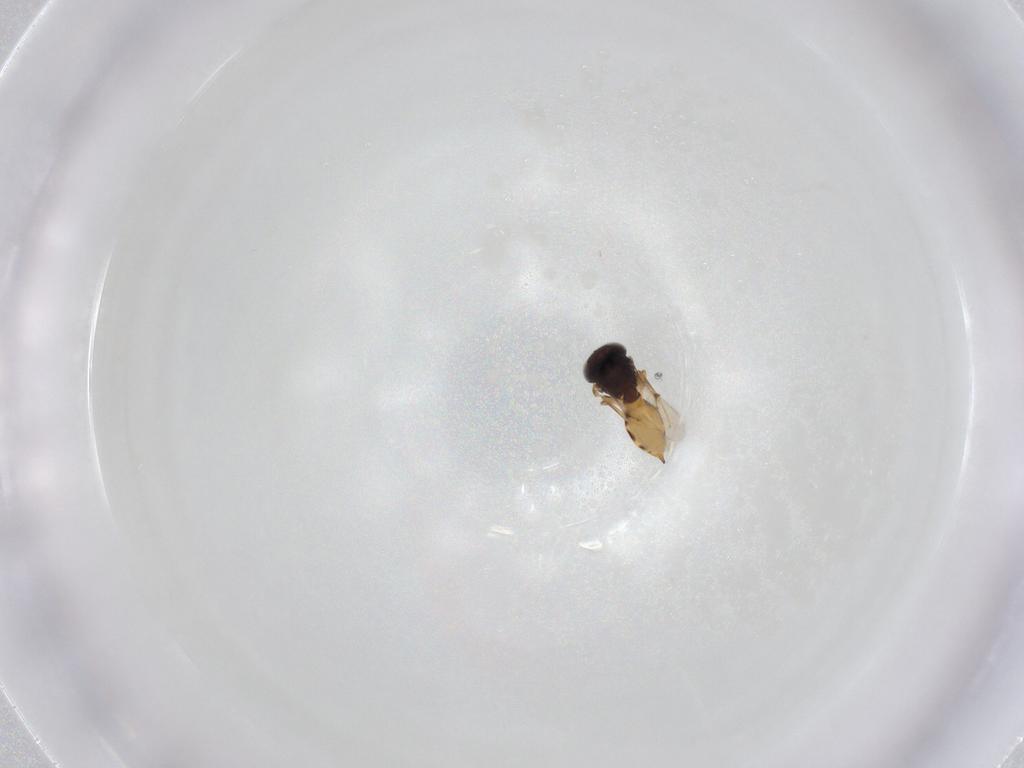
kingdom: Animalia
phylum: Arthropoda
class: Insecta
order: Hymenoptera
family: Scelionidae
